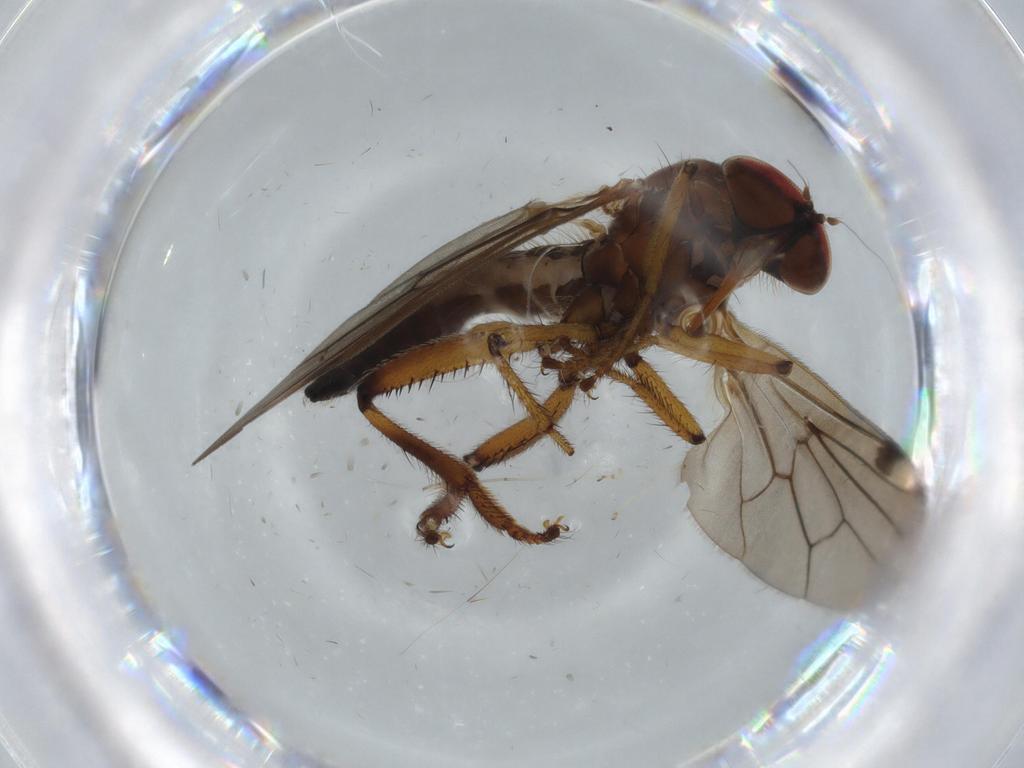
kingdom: Animalia
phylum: Arthropoda
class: Insecta
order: Diptera
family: Hybotidae
